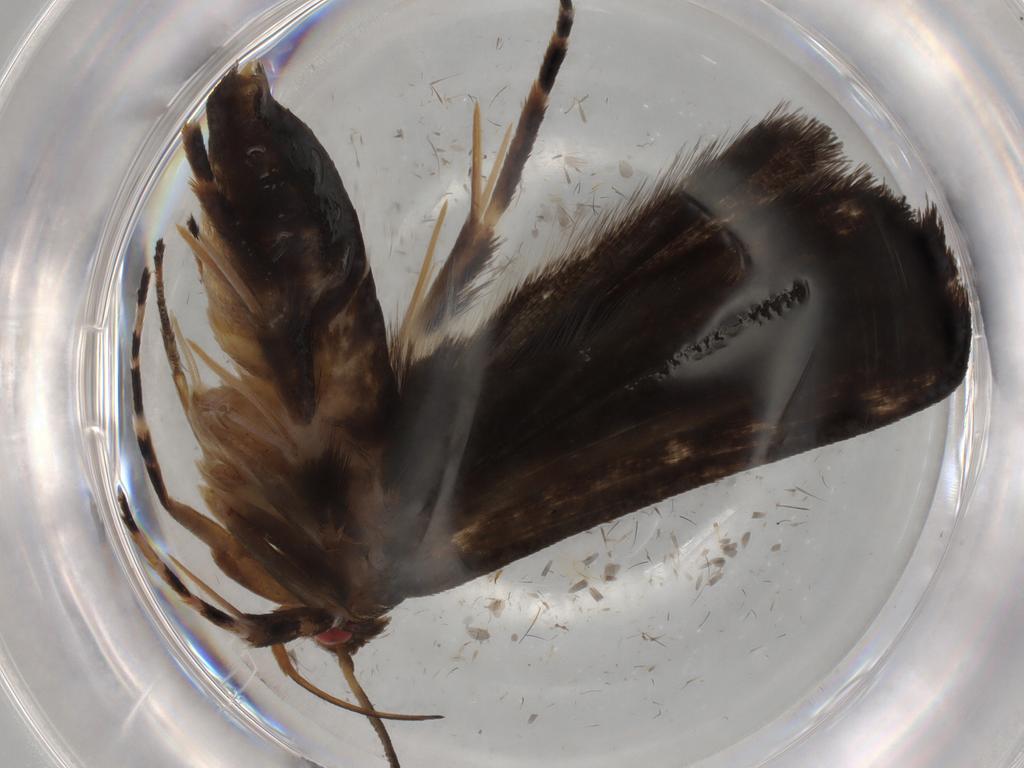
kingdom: Animalia
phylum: Arthropoda
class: Insecta
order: Lepidoptera
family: Gelechiidae
